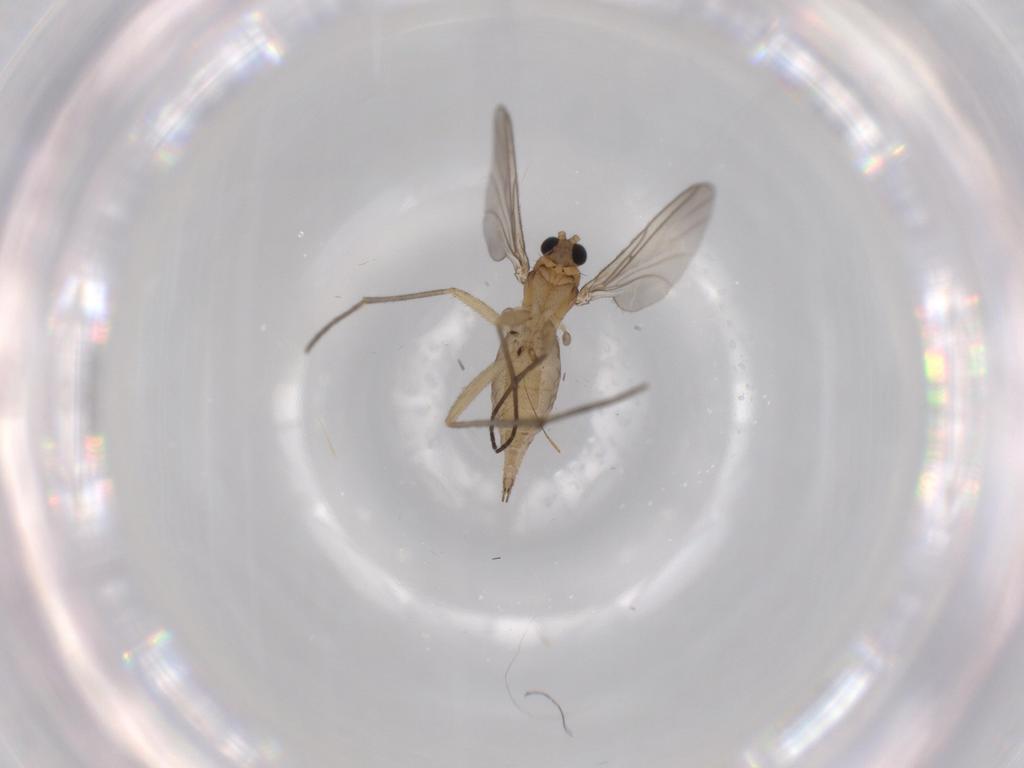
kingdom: Animalia
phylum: Arthropoda
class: Insecta
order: Diptera
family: Sciaridae
